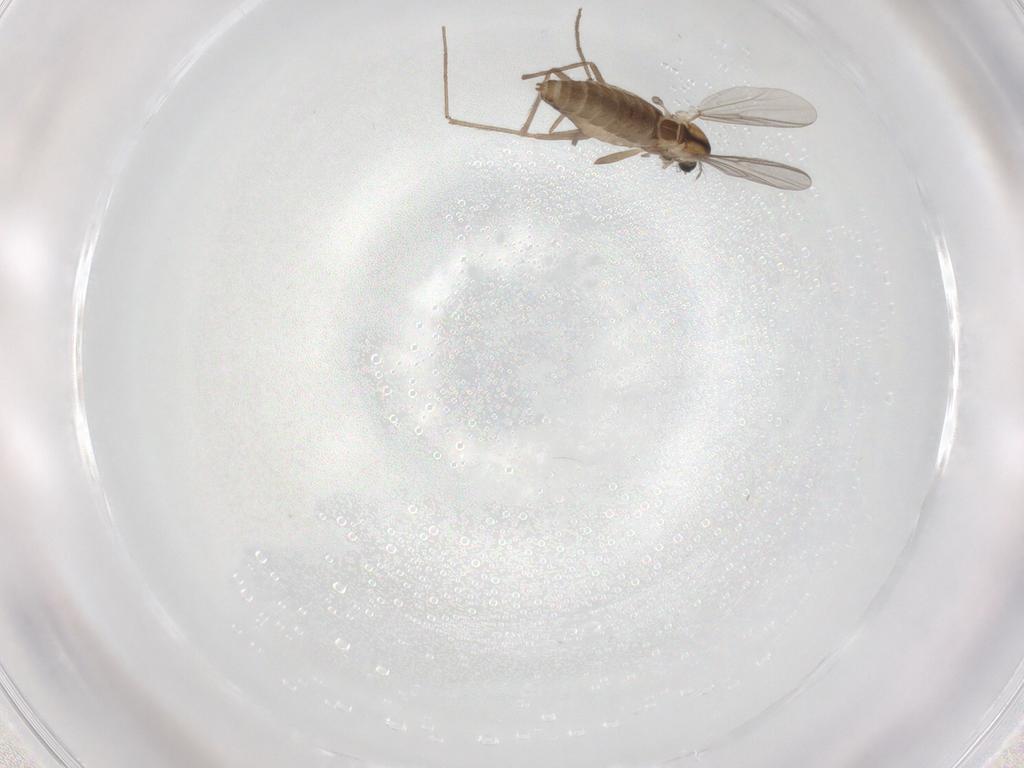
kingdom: Animalia
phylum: Arthropoda
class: Insecta
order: Diptera
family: Chironomidae
